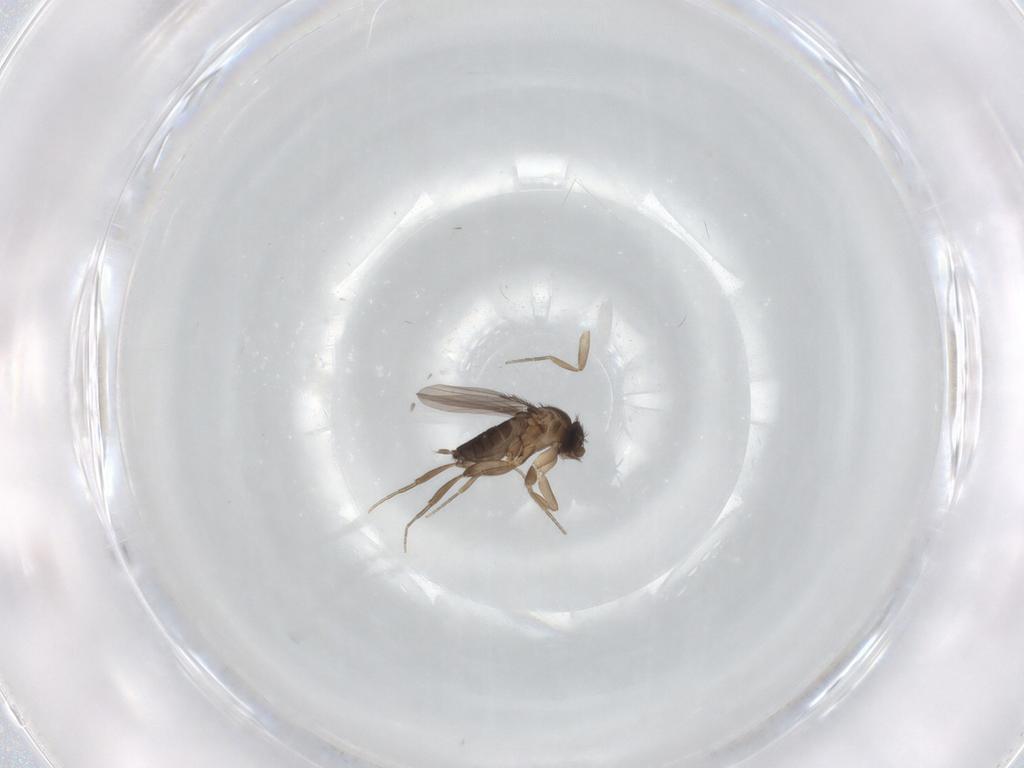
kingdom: Animalia
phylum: Arthropoda
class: Insecta
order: Diptera
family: Phoridae
